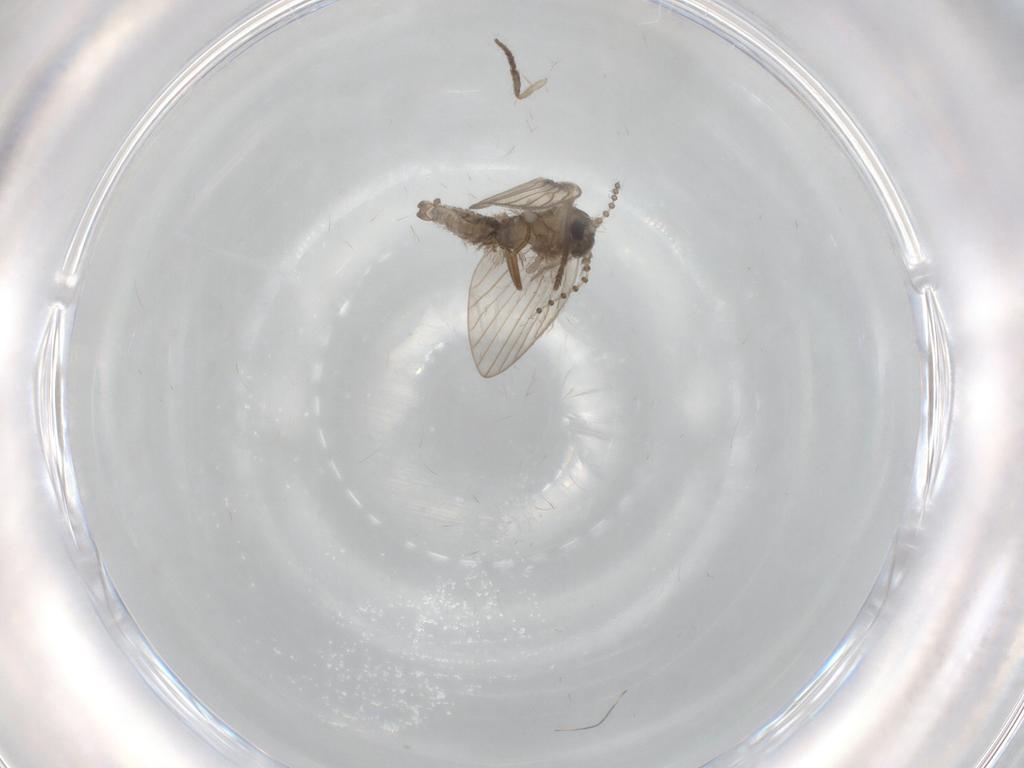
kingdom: Animalia
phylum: Arthropoda
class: Insecta
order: Diptera
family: Psychodidae
